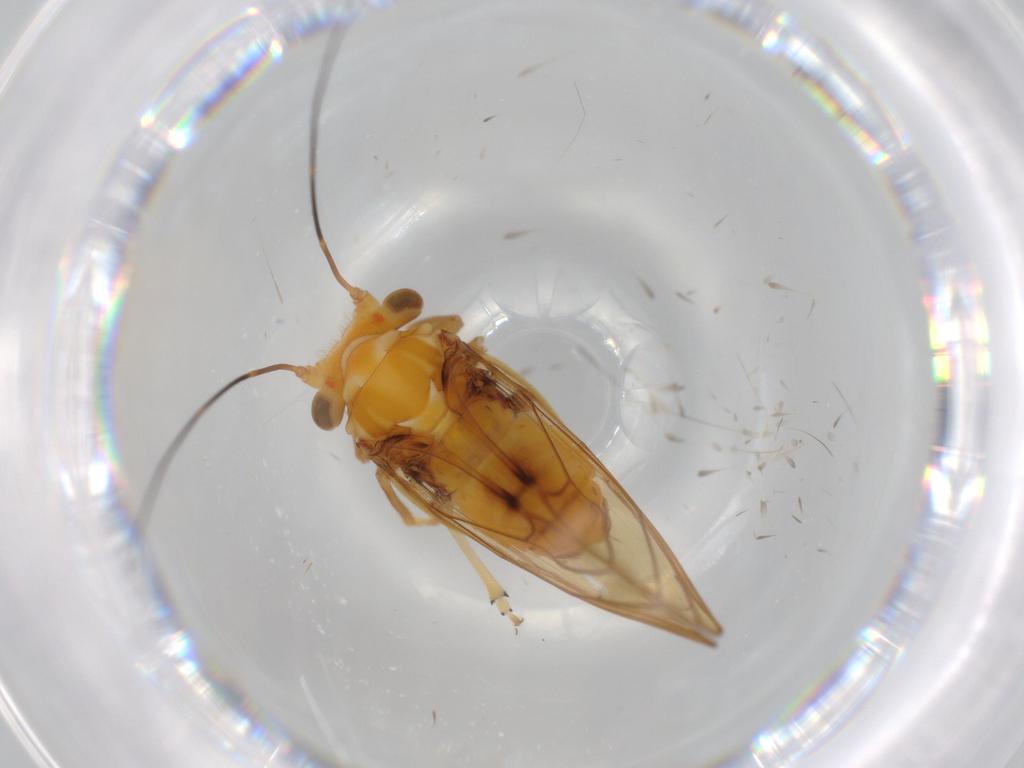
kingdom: Animalia
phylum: Arthropoda
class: Insecta
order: Hemiptera
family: Psyllidae
